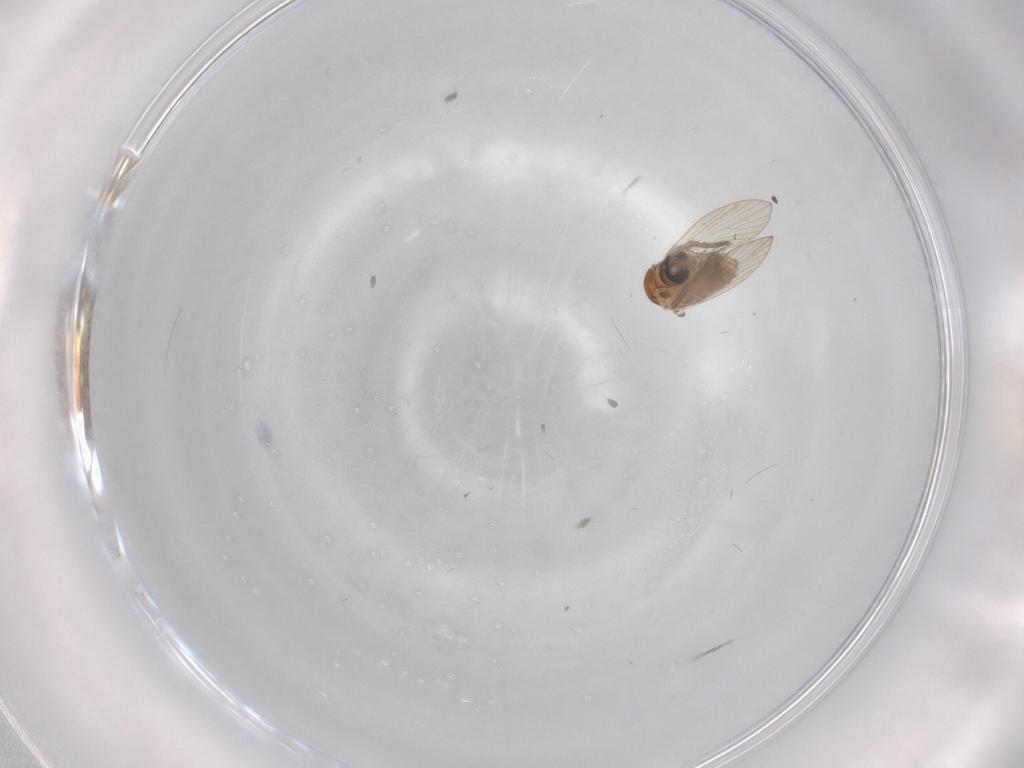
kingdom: Animalia
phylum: Arthropoda
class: Insecta
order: Diptera
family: Psychodidae
